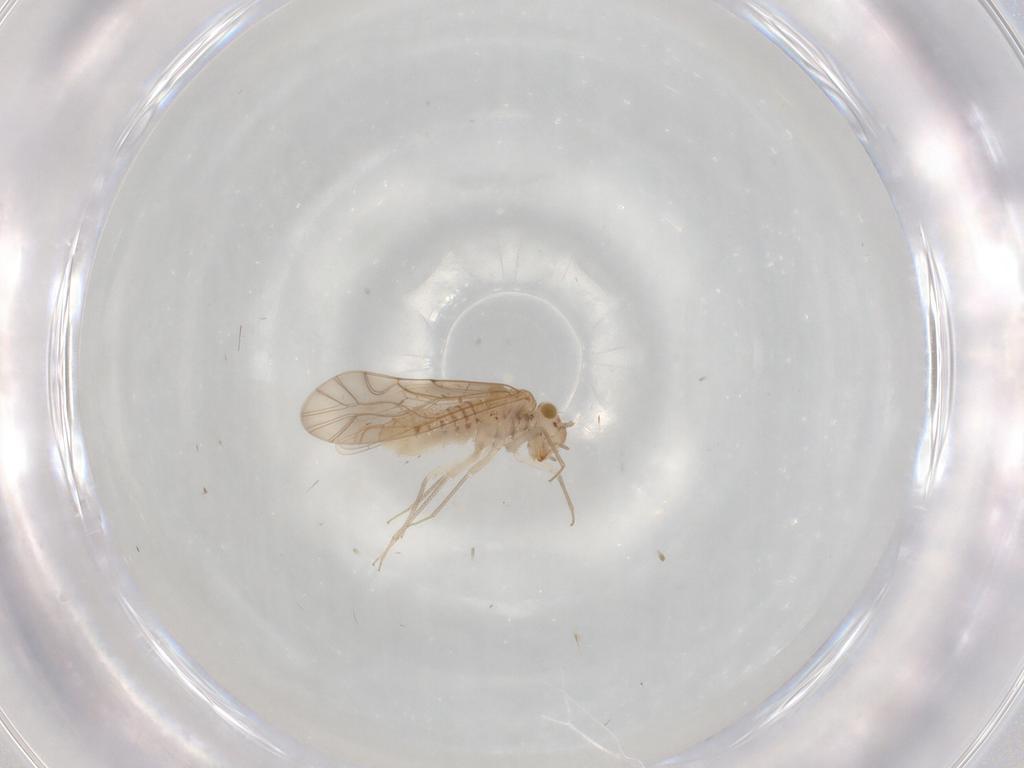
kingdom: Animalia
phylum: Arthropoda
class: Insecta
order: Psocodea
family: Lachesillidae
